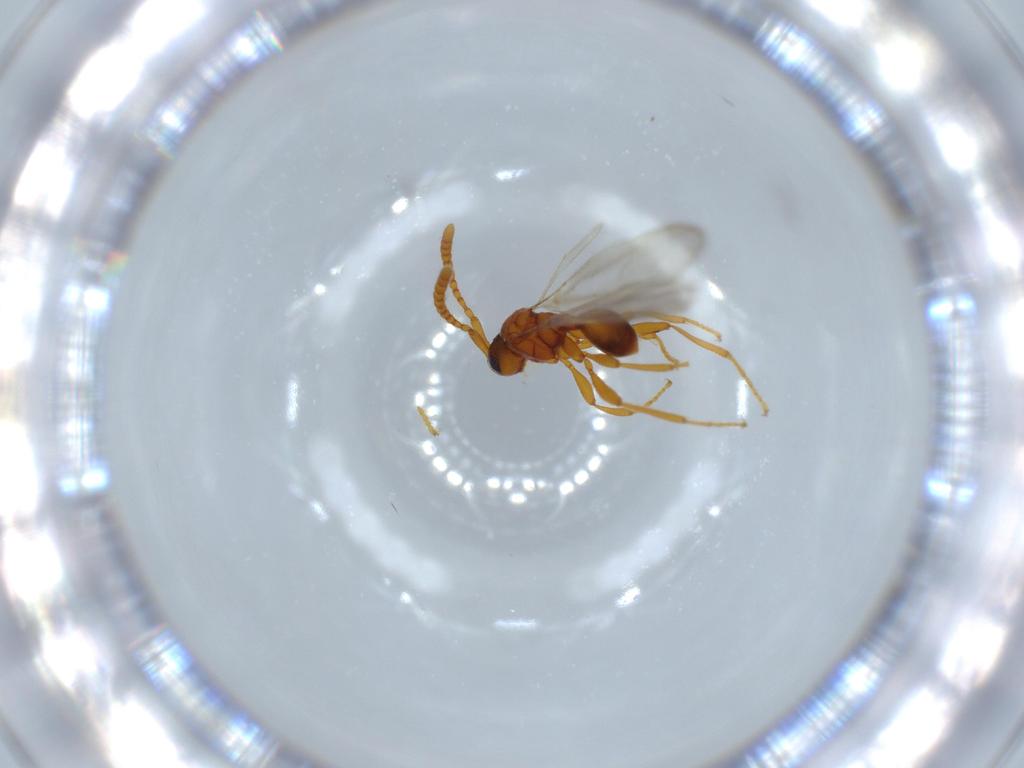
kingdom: Animalia
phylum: Arthropoda
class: Insecta
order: Hymenoptera
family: Diapriidae
